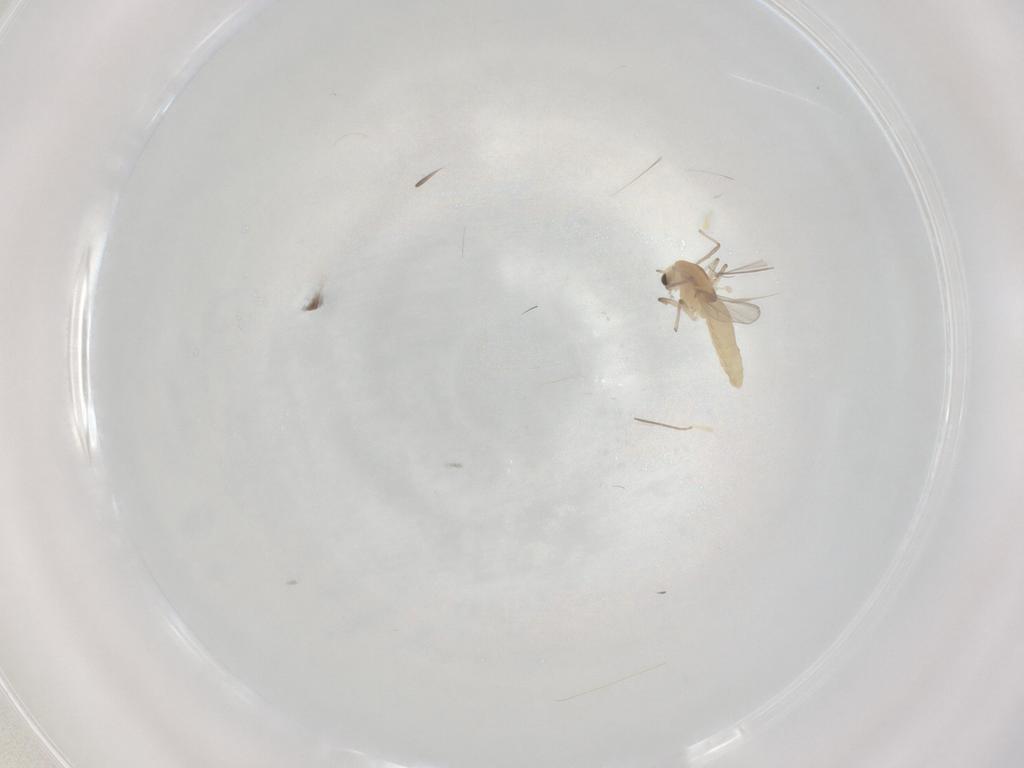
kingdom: Animalia
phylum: Arthropoda
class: Insecta
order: Diptera
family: Chironomidae
